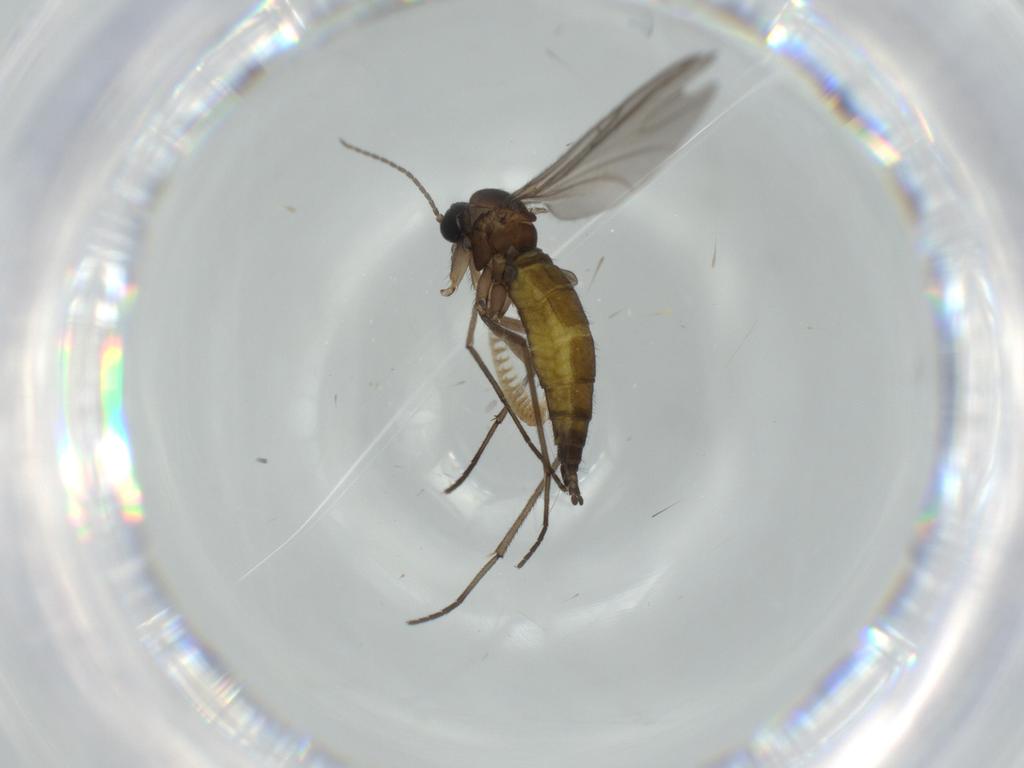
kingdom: Animalia
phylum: Arthropoda
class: Insecta
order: Diptera
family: Sciaridae
